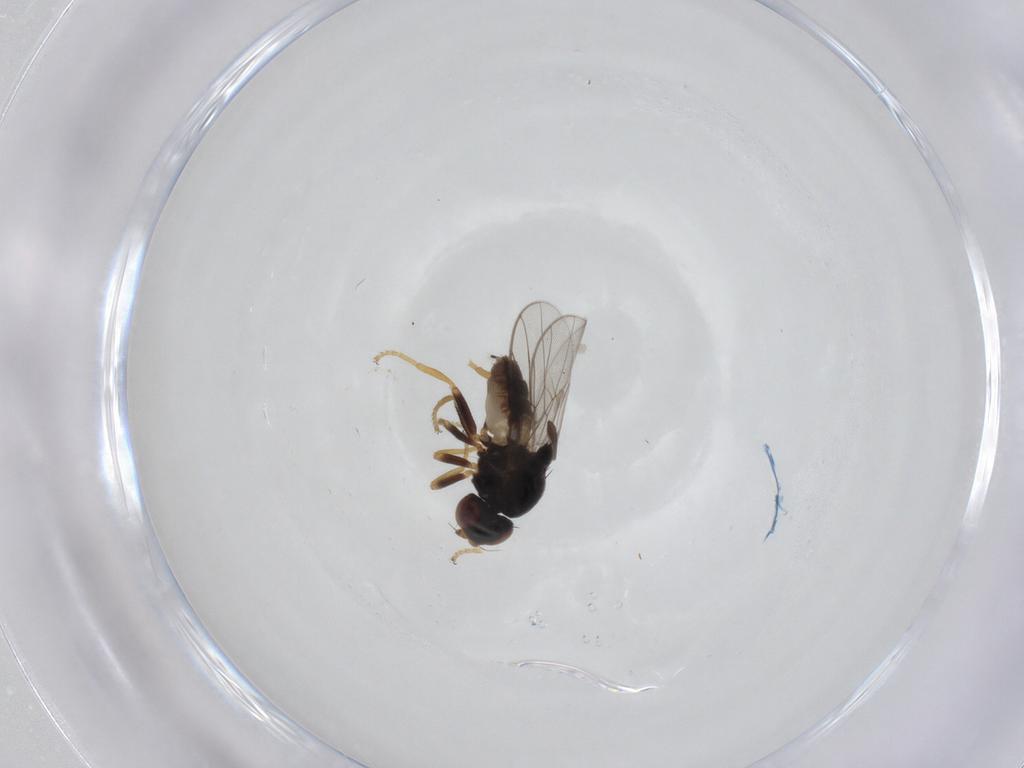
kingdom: Animalia
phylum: Arthropoda
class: Insecta
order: Diptera
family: Chloropidae
